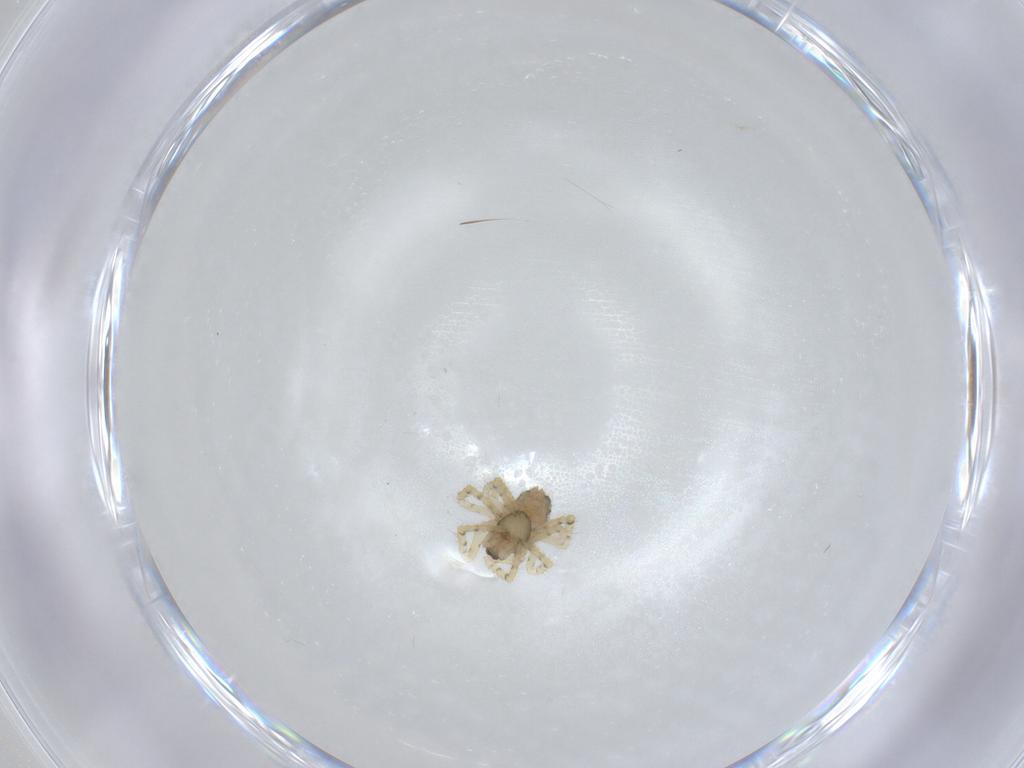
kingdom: Animalia
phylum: Arthropoda
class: Arachnida
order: Araneae
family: Theridiidae
